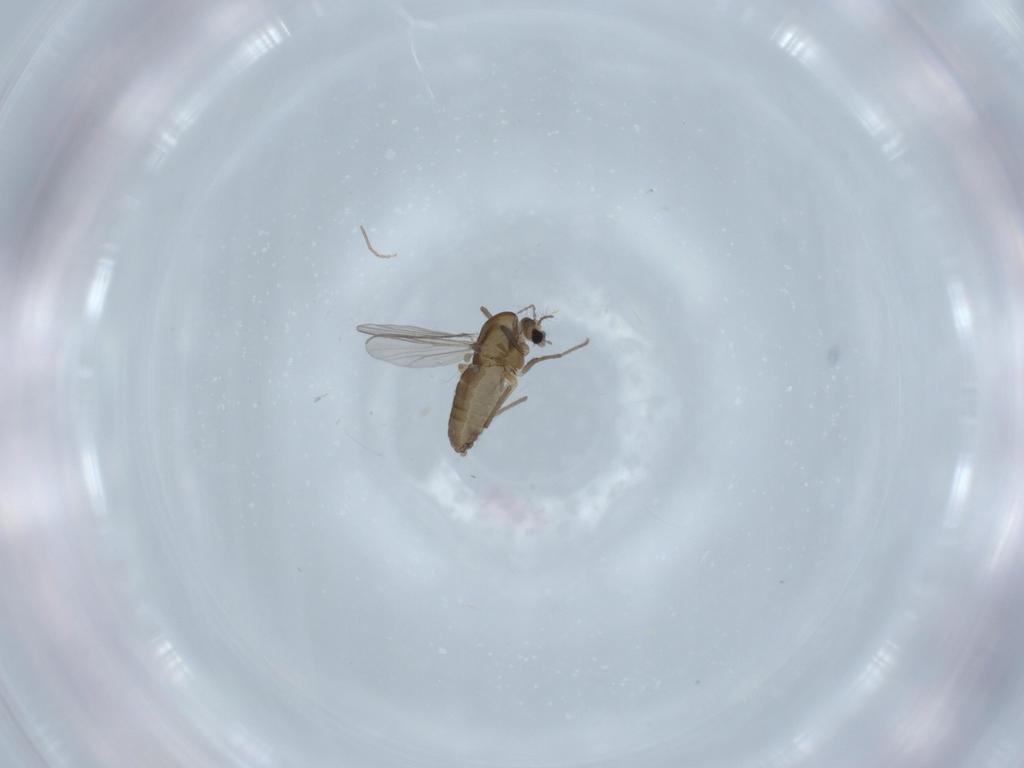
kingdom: Animalia
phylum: Arthropoda
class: Insecta
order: Diptera
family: Chironomidae
